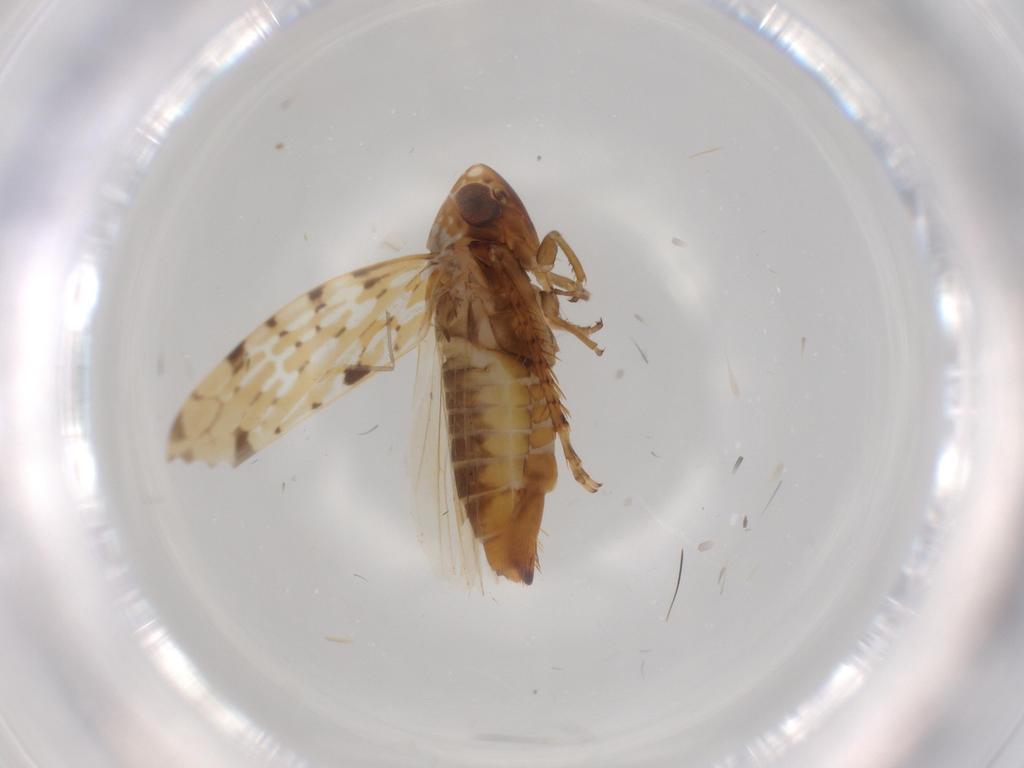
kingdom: Animalia
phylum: Arthropoda
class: Insecta
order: Hemiptera
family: Cicadellidae
